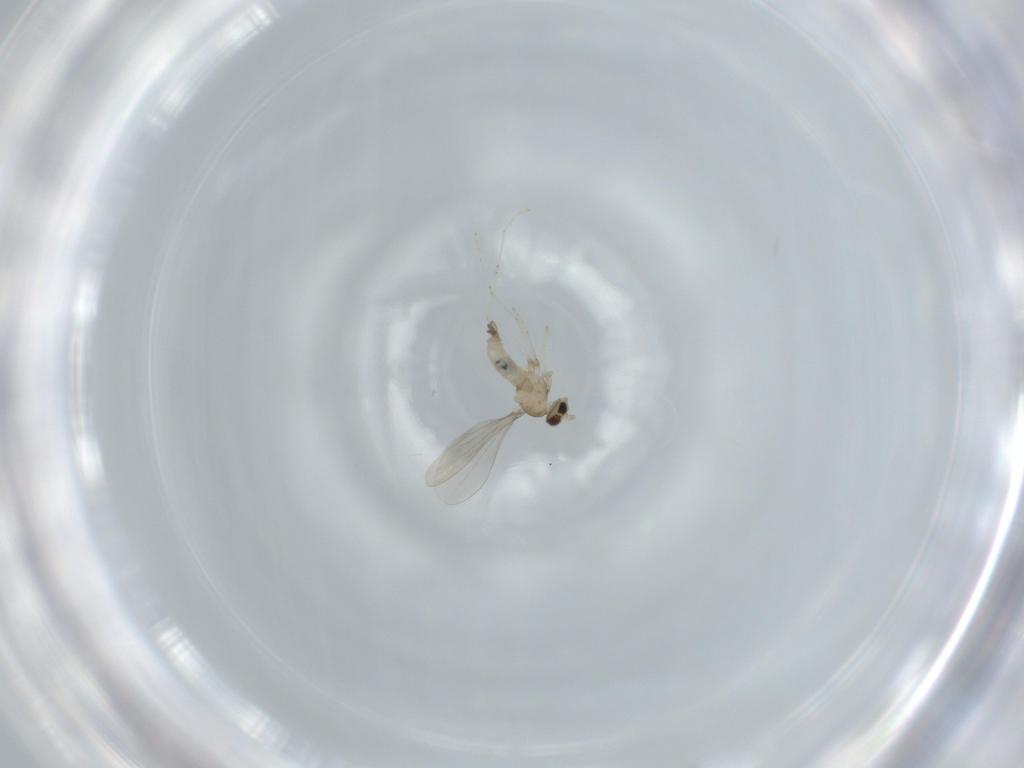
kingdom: Animalia
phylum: Arthropoda
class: Insecta
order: Diptera
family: Cecidomyiidae
